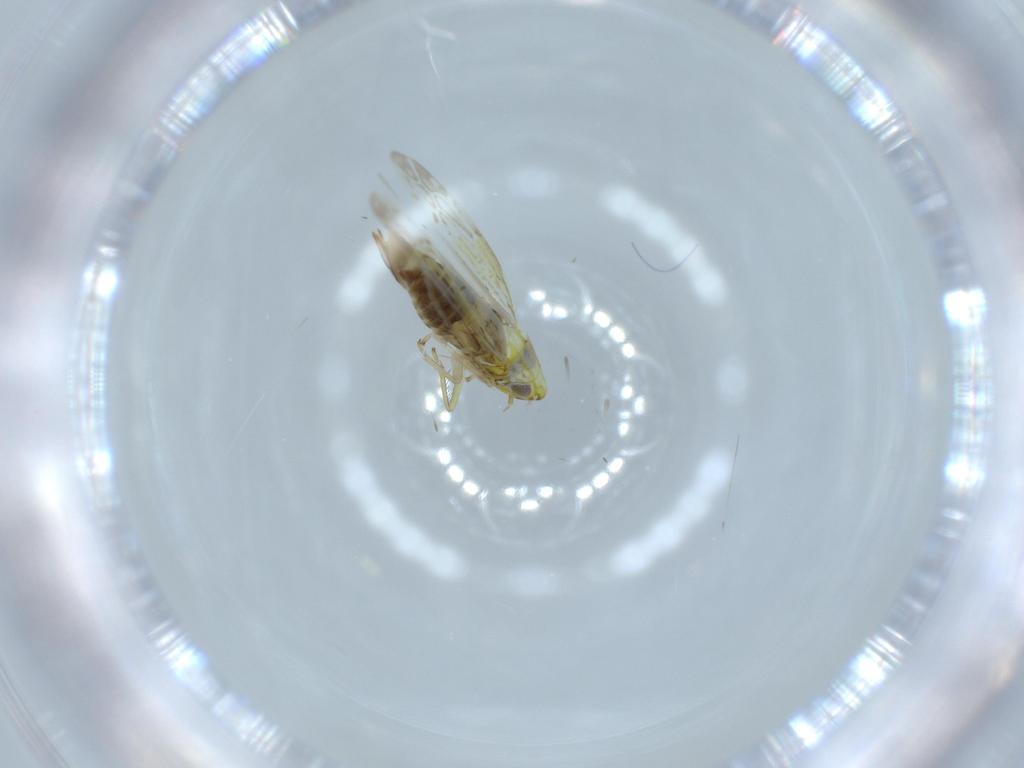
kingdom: Animalia
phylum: Arthropoda
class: Insecta
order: Hemiptera
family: Cicadellidae
